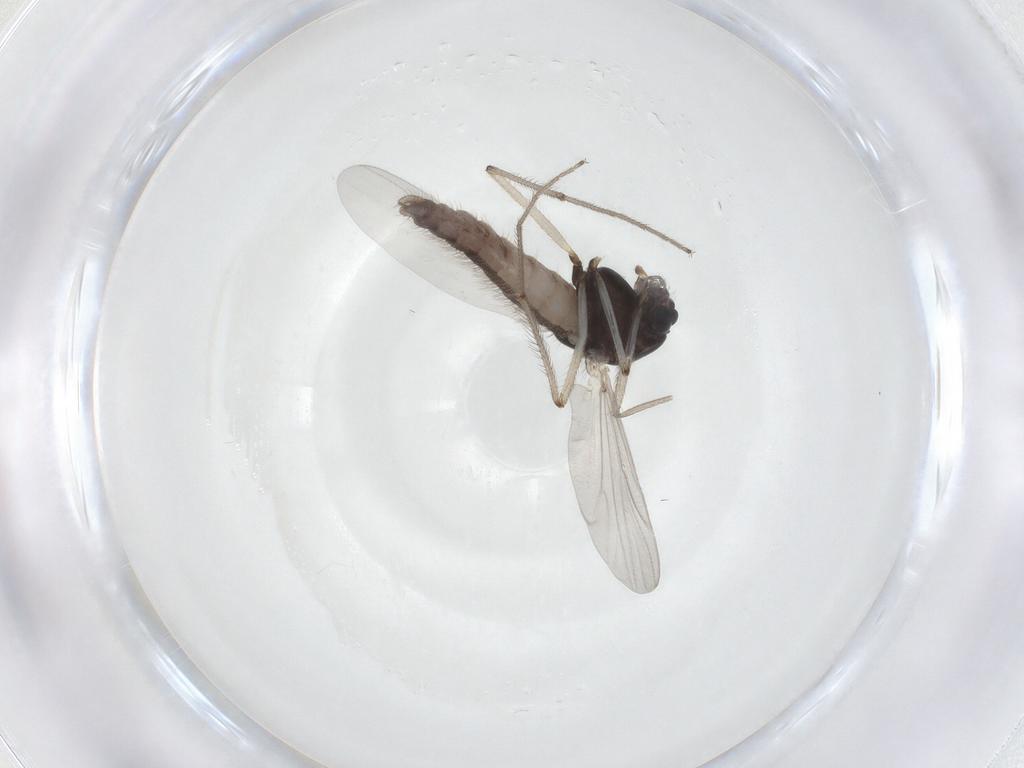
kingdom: Animalia
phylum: Arthropoda
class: Insecta
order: Diptera
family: Chironomidae
